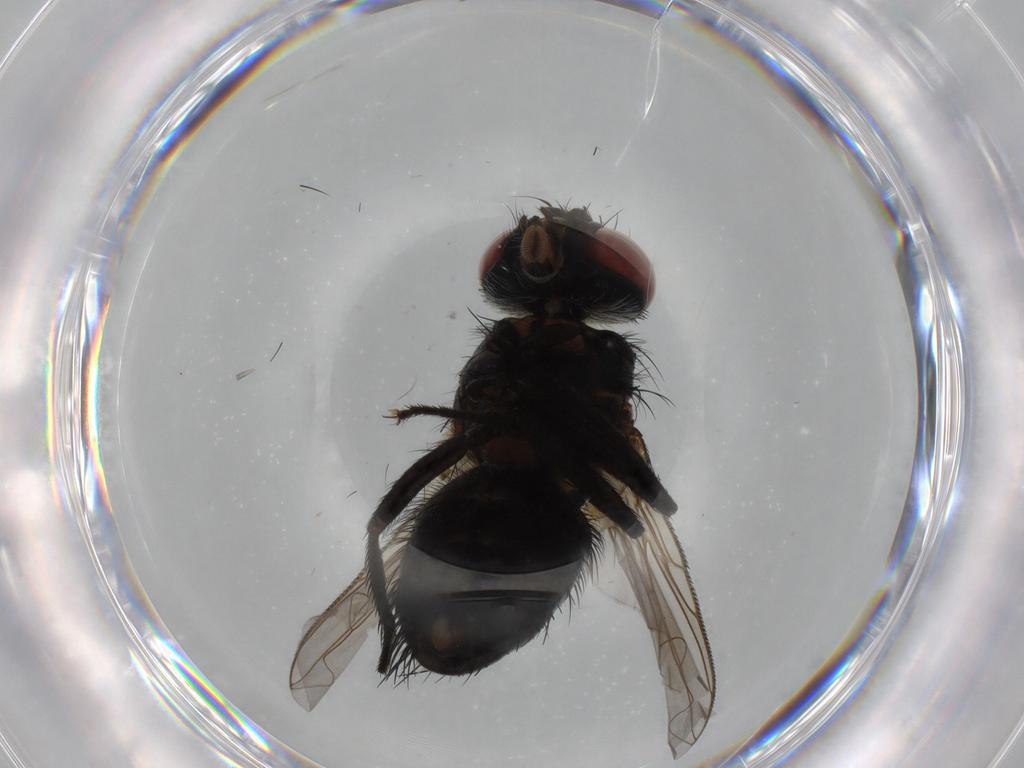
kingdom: Animalia
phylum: Arthropoda
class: Insecta
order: Diptera
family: Tachinidae
